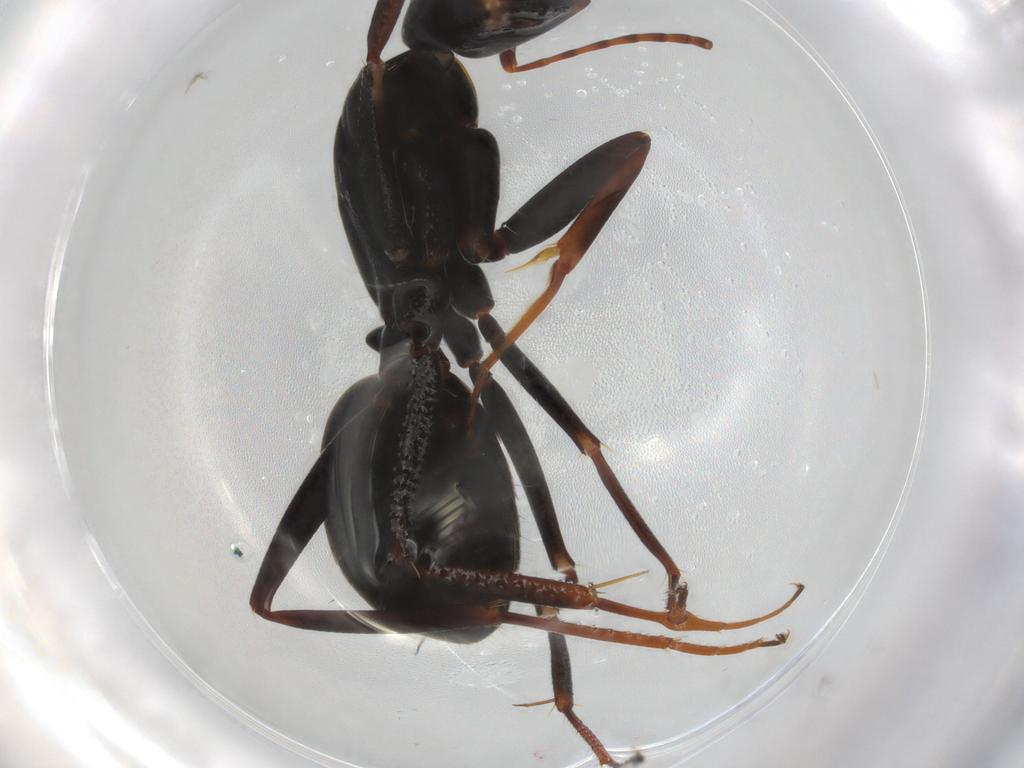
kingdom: Animalia
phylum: Arthropoda
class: Insecta
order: Hymenoptera
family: Formicidae
